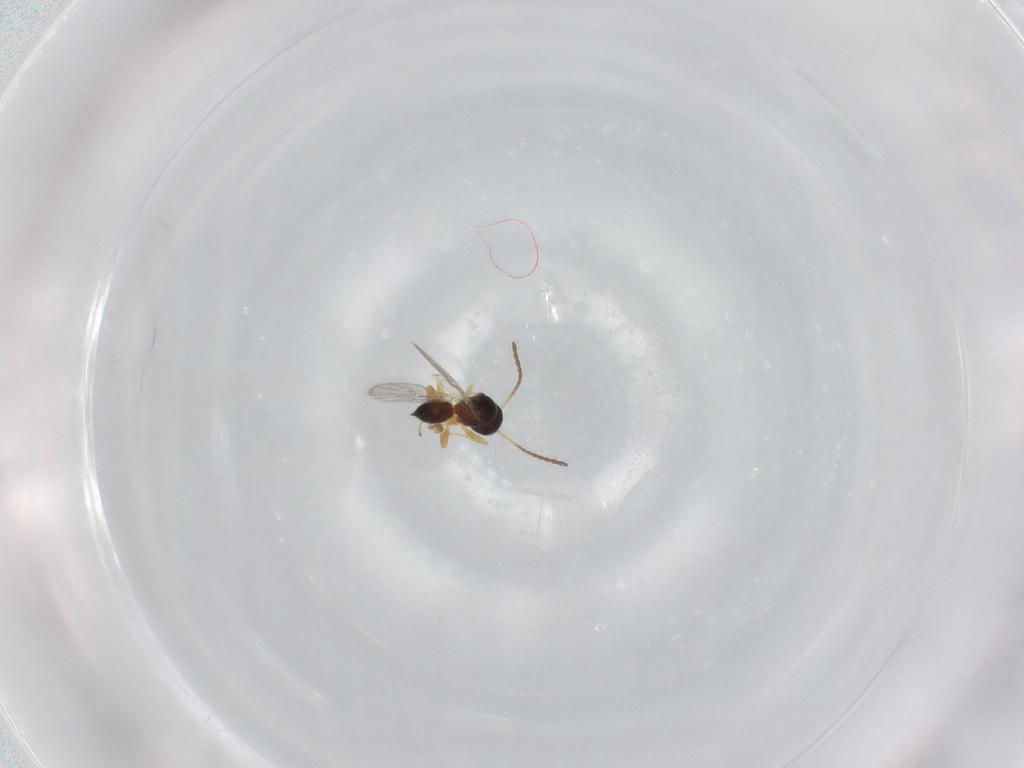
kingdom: Animalia
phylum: Arthropoda
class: Insecta
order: Hymenoptera
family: Figitidae
